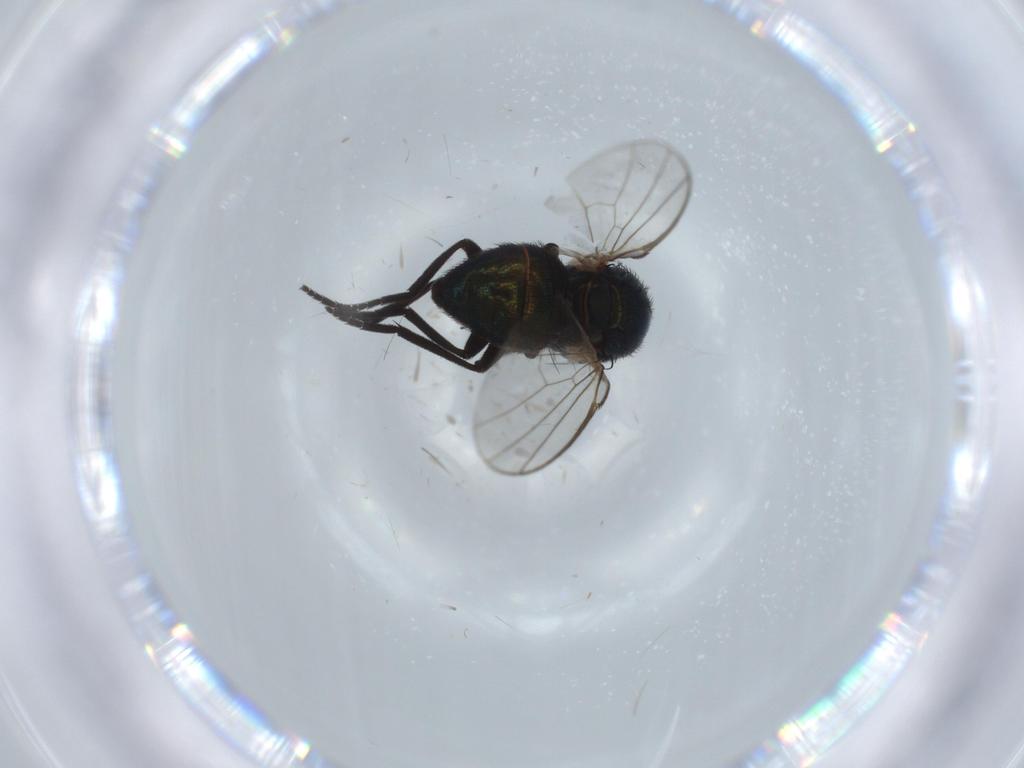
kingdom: Animalia
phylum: Arthropoda
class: Insecta
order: Diptera
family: Agromyzidae
